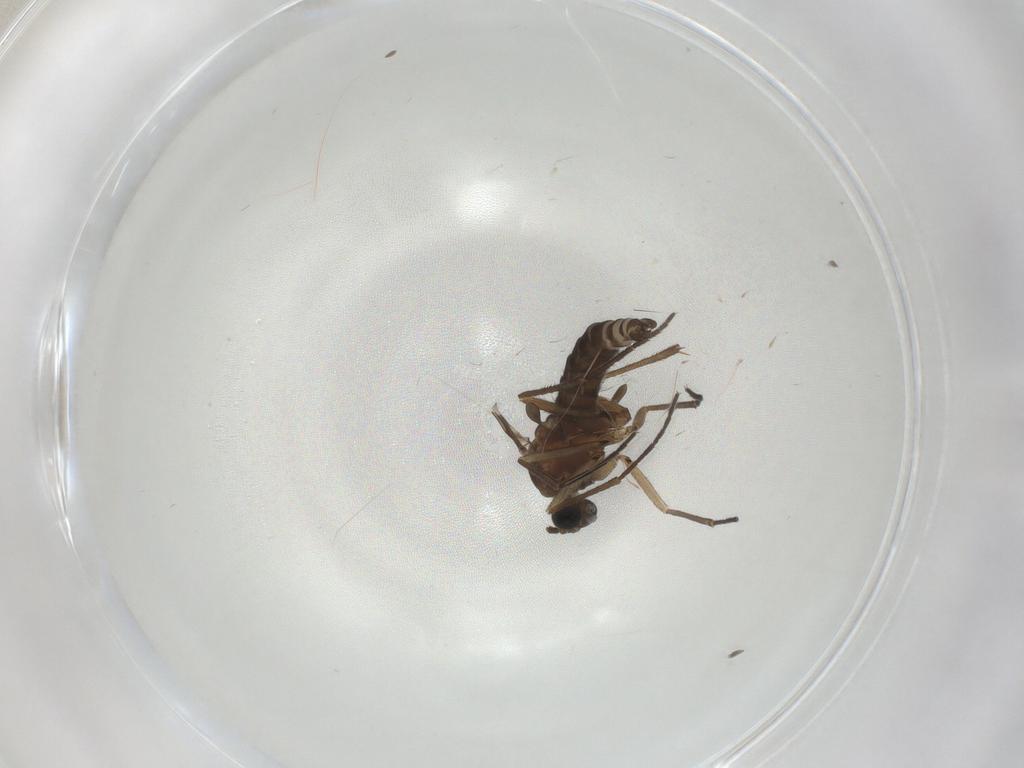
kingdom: Animalia
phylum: Arthropoda
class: Insecta
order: Diptera
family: Sciaridae
